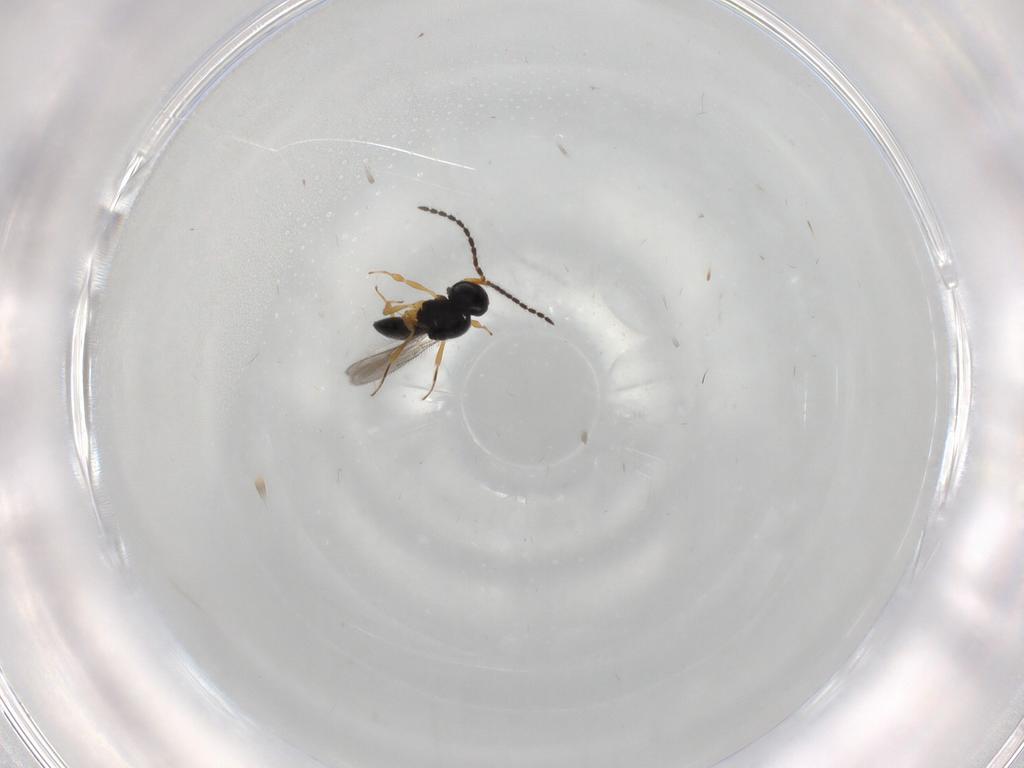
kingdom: Animalia
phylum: Arthropoda
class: Insecta
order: Hymenoptera
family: Scelionidae
